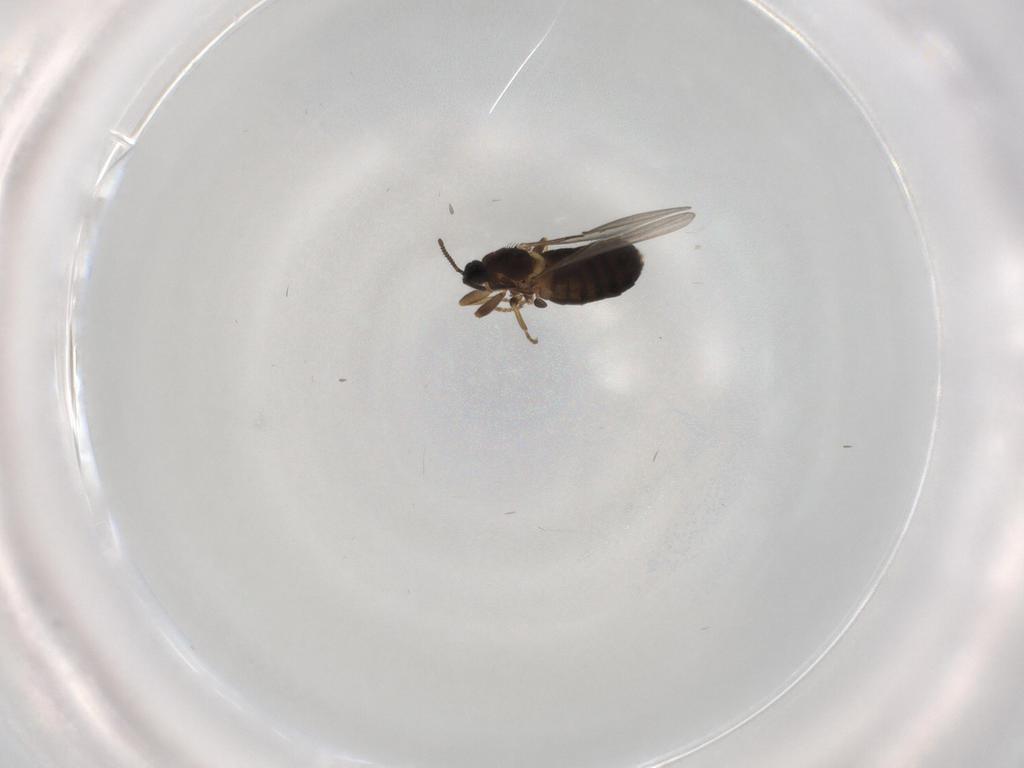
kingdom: Animalia
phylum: Arthropoda
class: Insecta
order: Diptera
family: Scatopsidae
